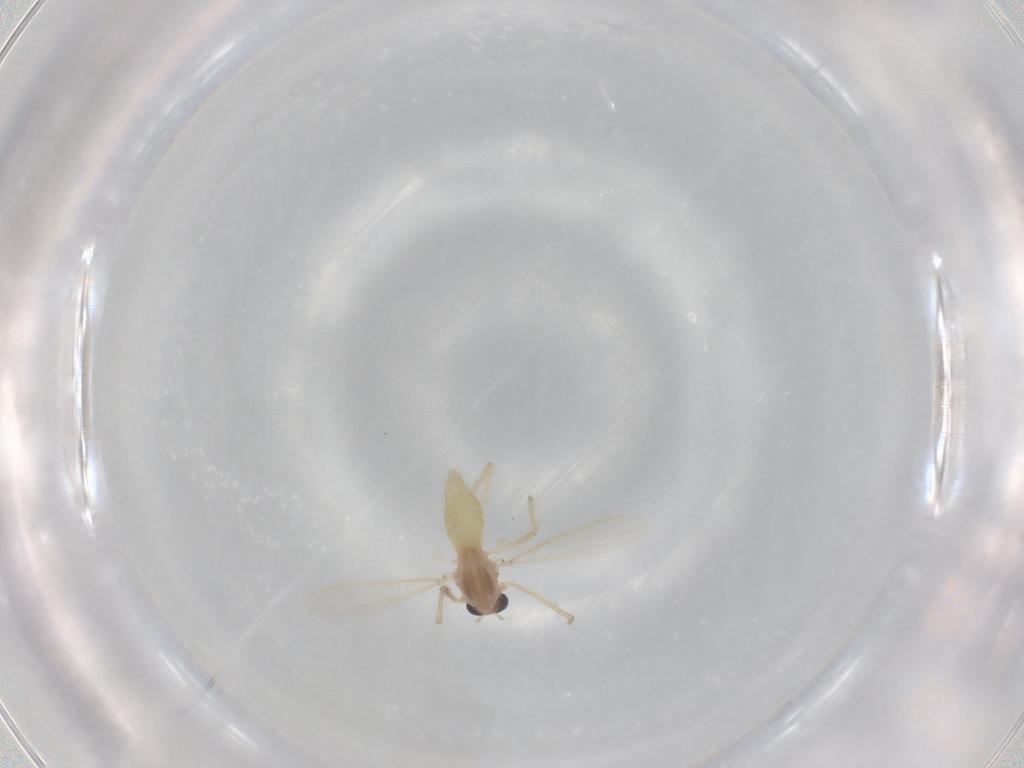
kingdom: Animalia
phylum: Arthropoda
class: Insecta
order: Diptera
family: Chironomidae
